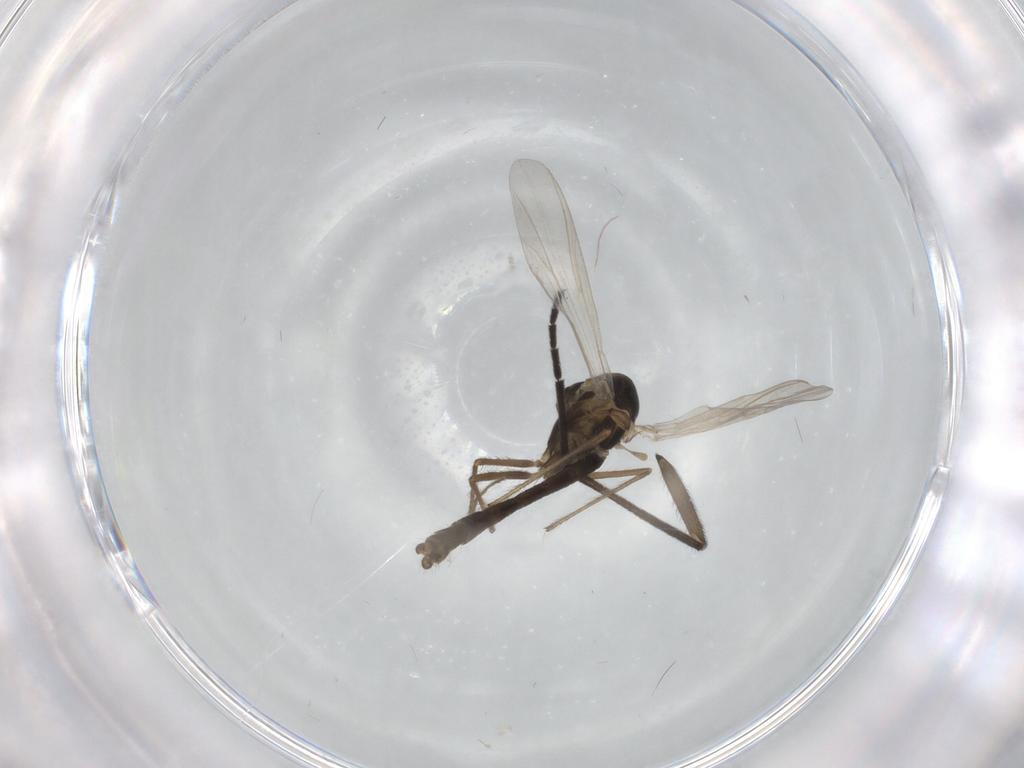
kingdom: Animalia
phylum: Arthropoda
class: Insecta
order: Diptera
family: Chironomidae
